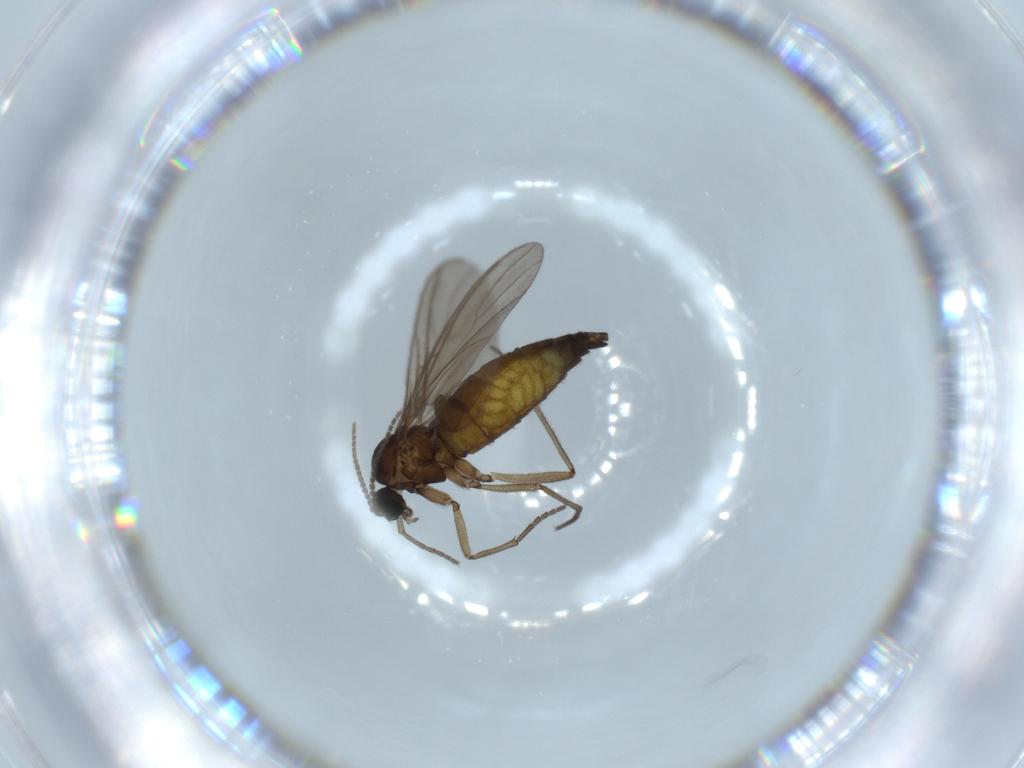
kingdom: Animalia
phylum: Arthropoda
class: Insecta
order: Diptera
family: Sciaridae
